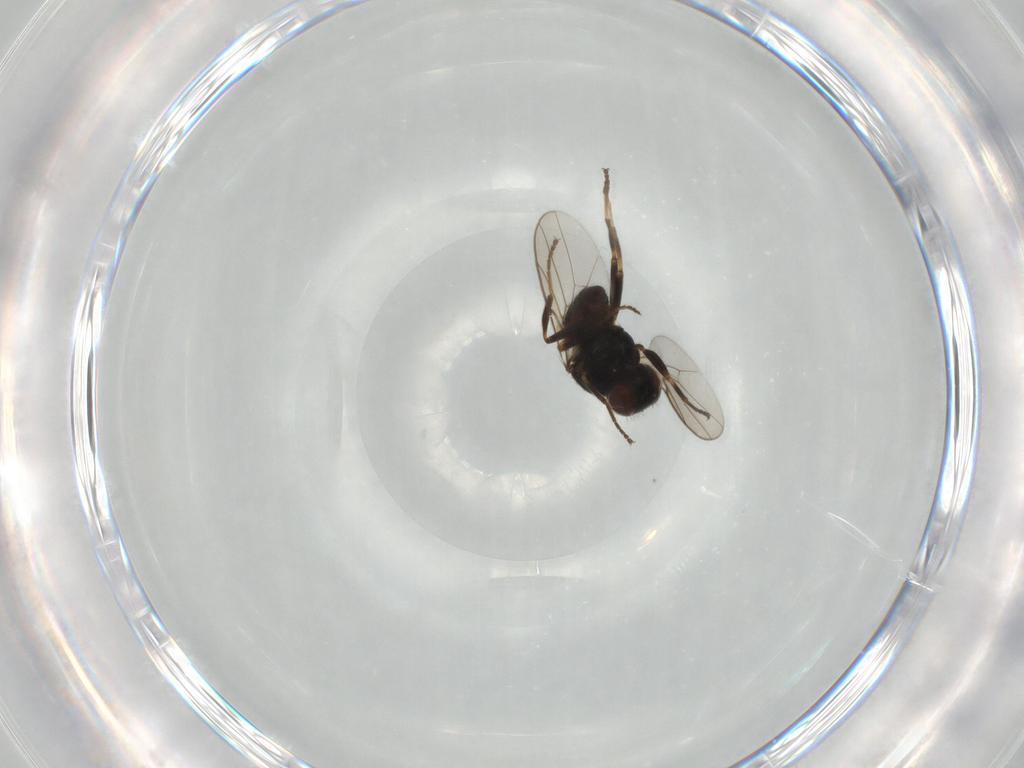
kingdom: Animalia
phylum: Arthropoda
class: Insecta
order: Diptera
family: Chloropidae
